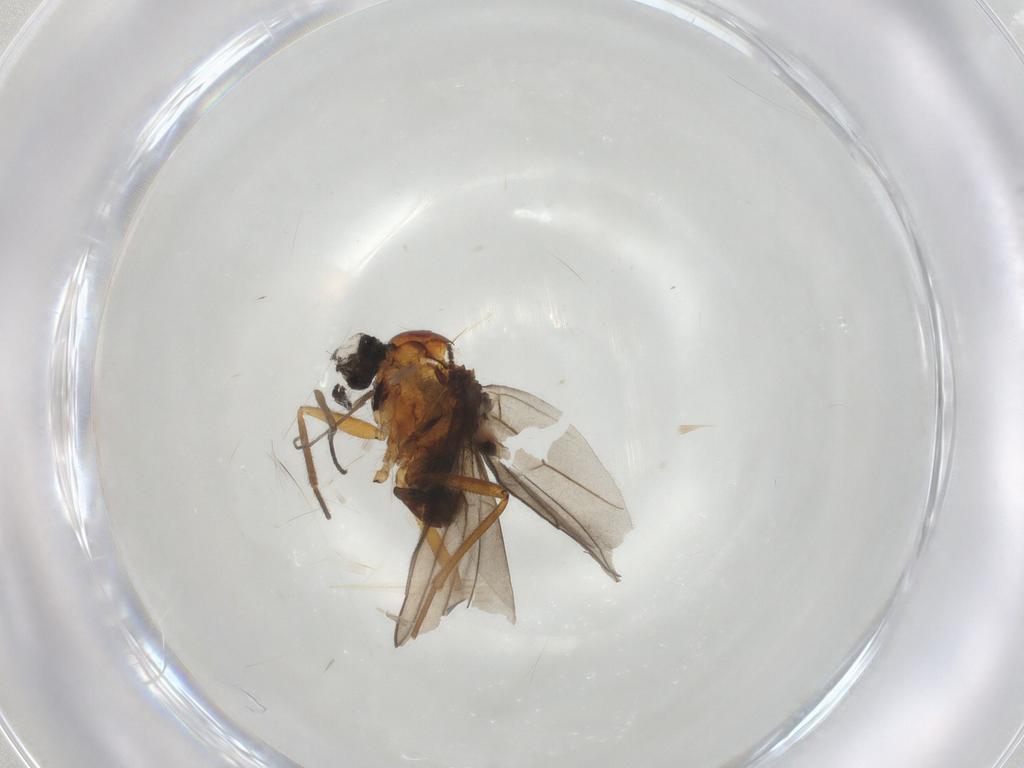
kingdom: Animalia
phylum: Arthropoda
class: Insecta
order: Diptera
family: Hybotidae
